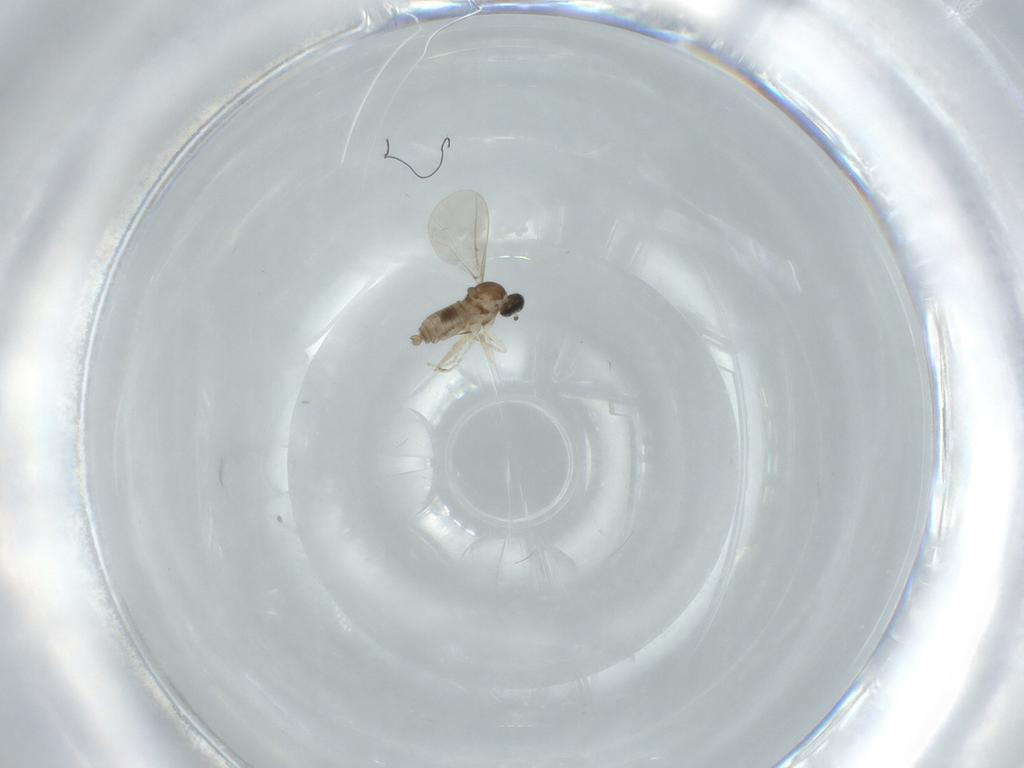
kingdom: Animalia
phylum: Arthropoda
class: Insecta
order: Diptera
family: Cecidomyiidae
